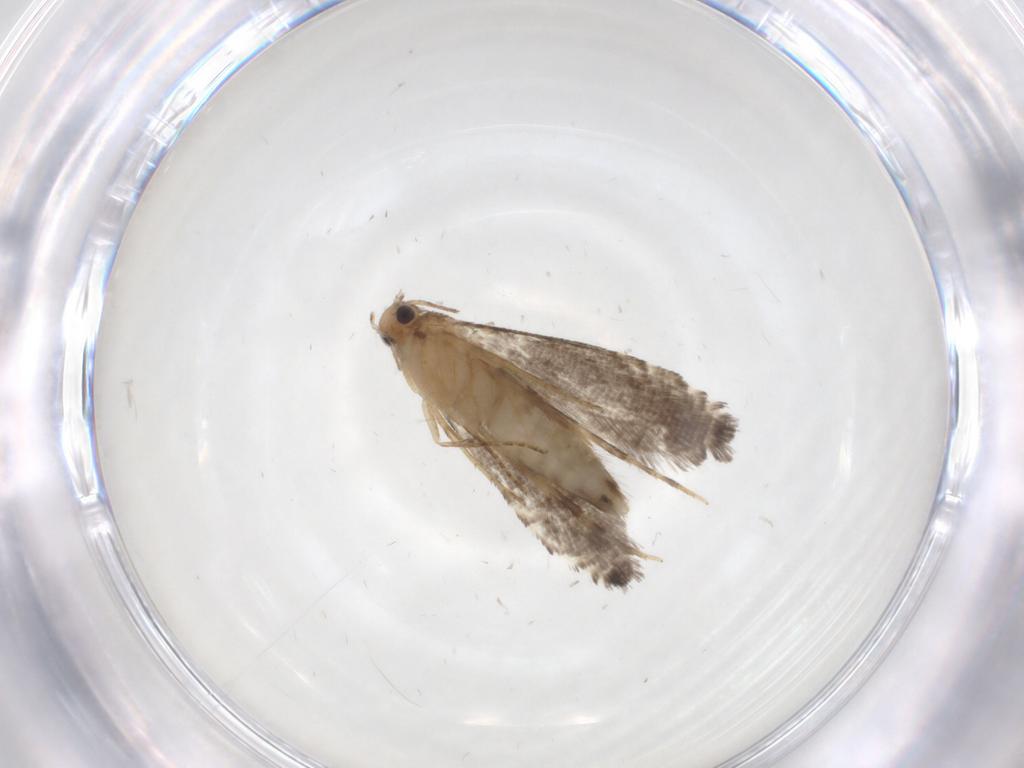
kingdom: Animalia
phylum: Arthropoda
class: Insecta
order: Lepidoptera
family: Glyphipterigidae
